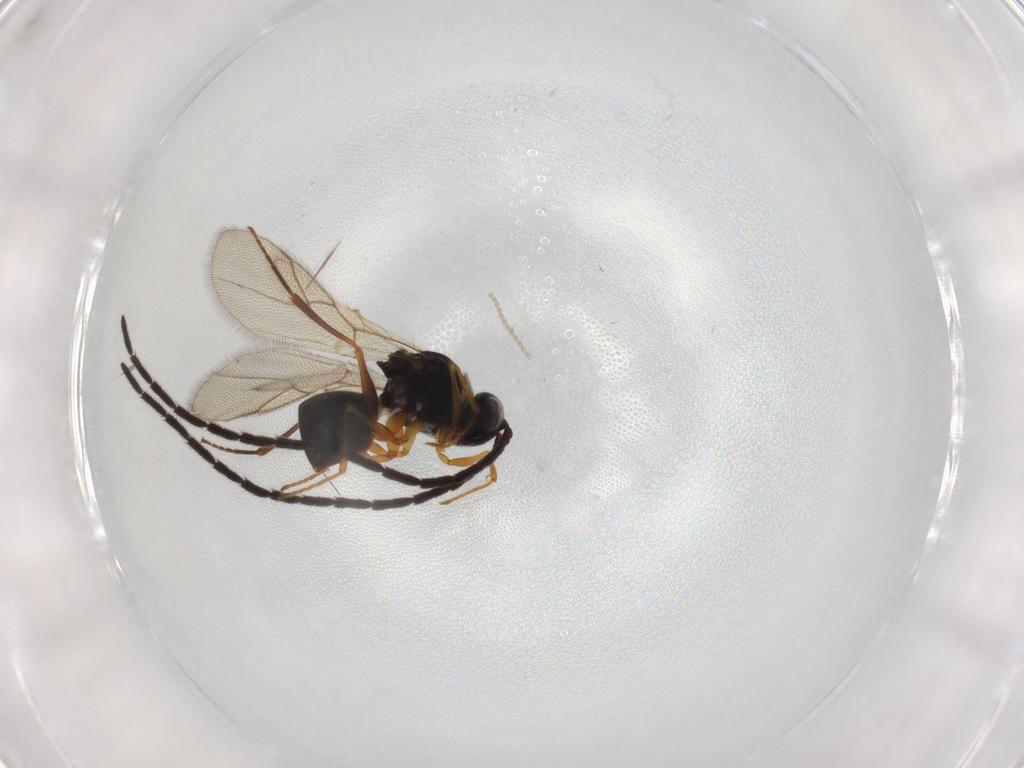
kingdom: Animalia
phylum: Arthropoda
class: Insecta
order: Hymenoptera
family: Figitidae
